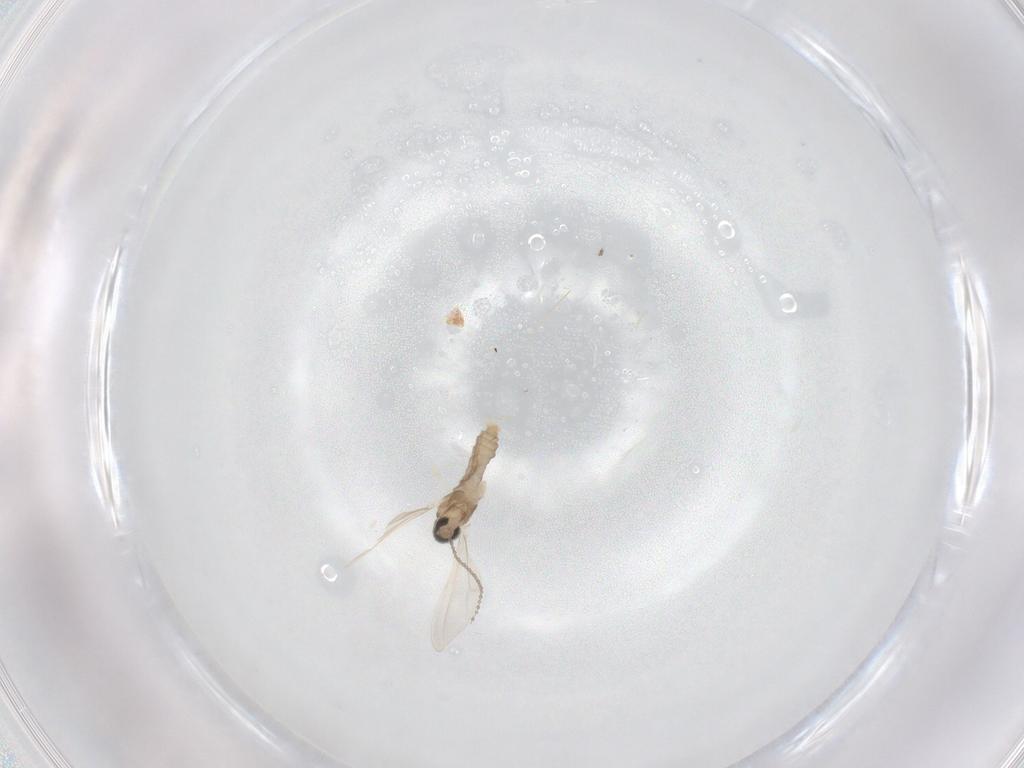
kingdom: Animalia
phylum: Arthropoda
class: Insecta
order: Diptera
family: Cecidomyiidae
